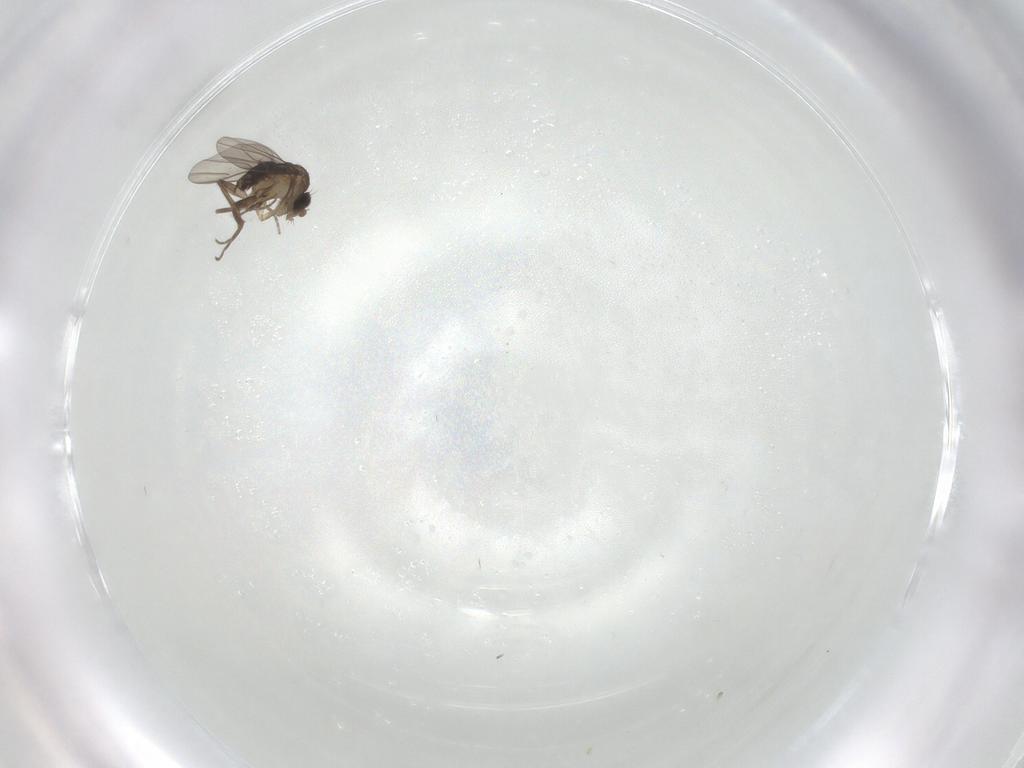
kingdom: Animalia
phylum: Arthropoda
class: Insecta
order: Diptera
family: Phoridae
